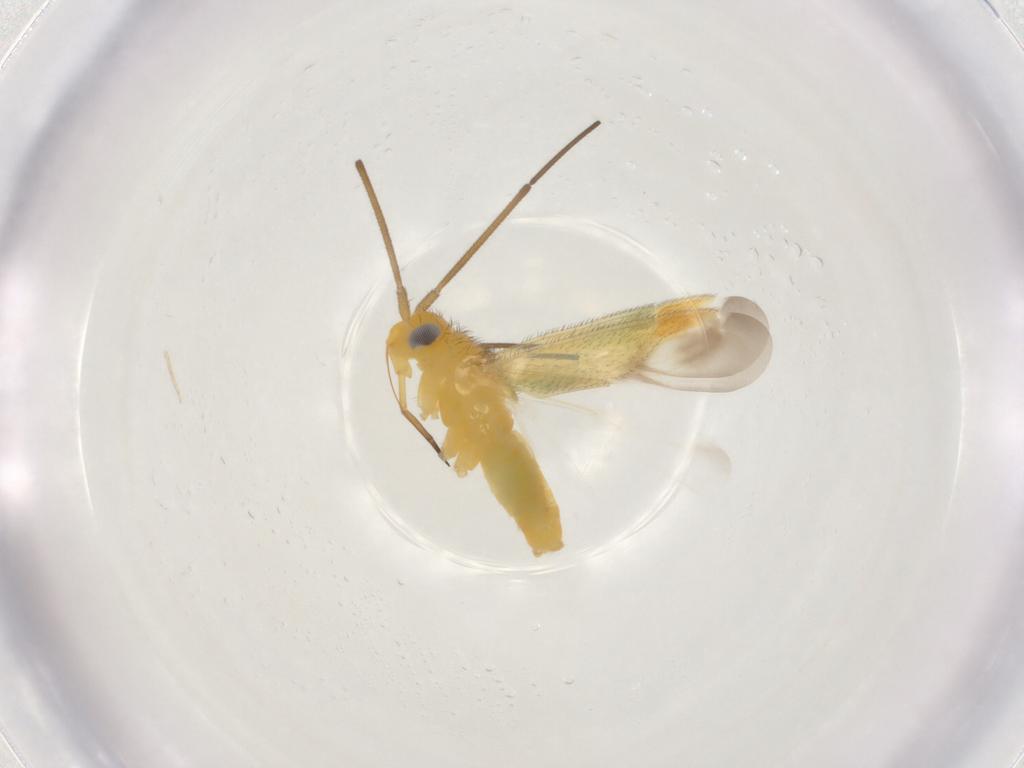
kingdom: Animalia
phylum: Arthropoda
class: Insecta
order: Hemiptera
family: Lygaeidae
